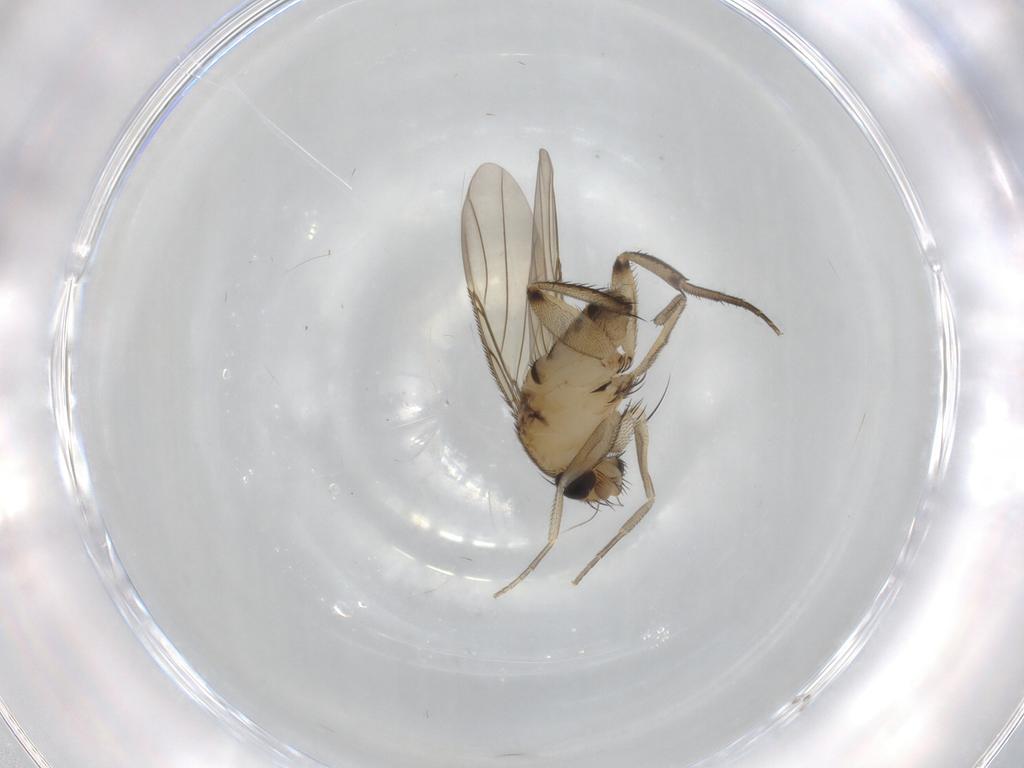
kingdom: Animalia
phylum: Arthropoda
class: Insecta
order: Diptera
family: Phoridae
